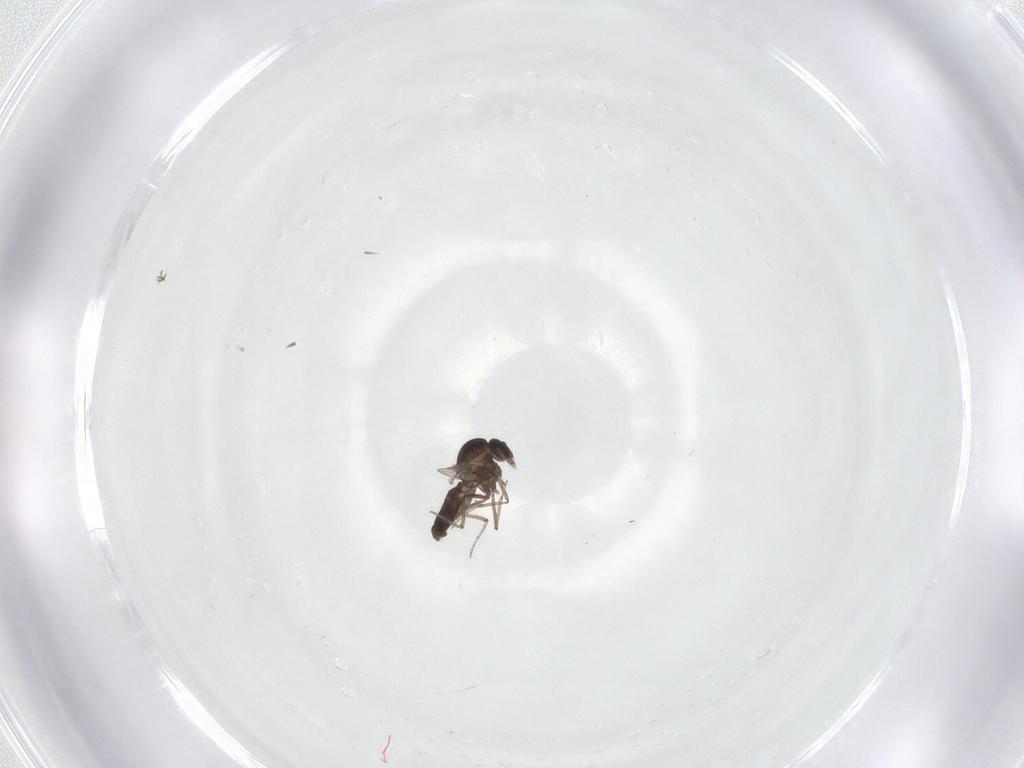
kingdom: Animalia
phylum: Arthropoda
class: Insecta
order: Diptera
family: Ceratopogonidae
